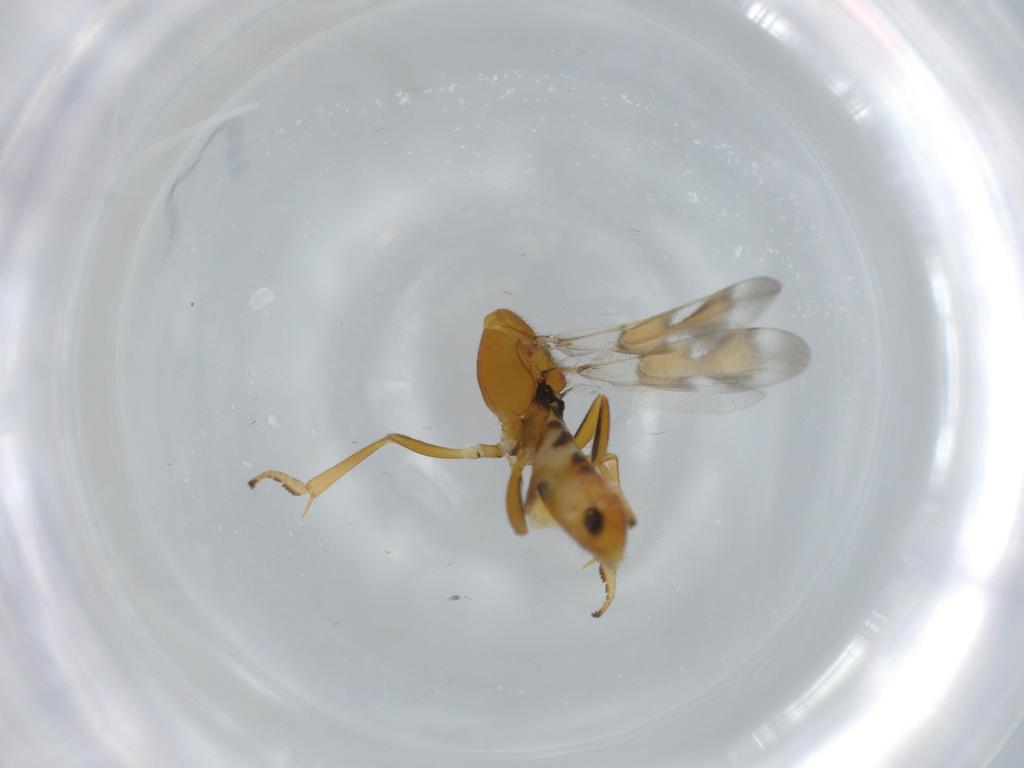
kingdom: Animalia
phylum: Arthropoda
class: Insecta
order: Hymenoptera
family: Eupelmidae
